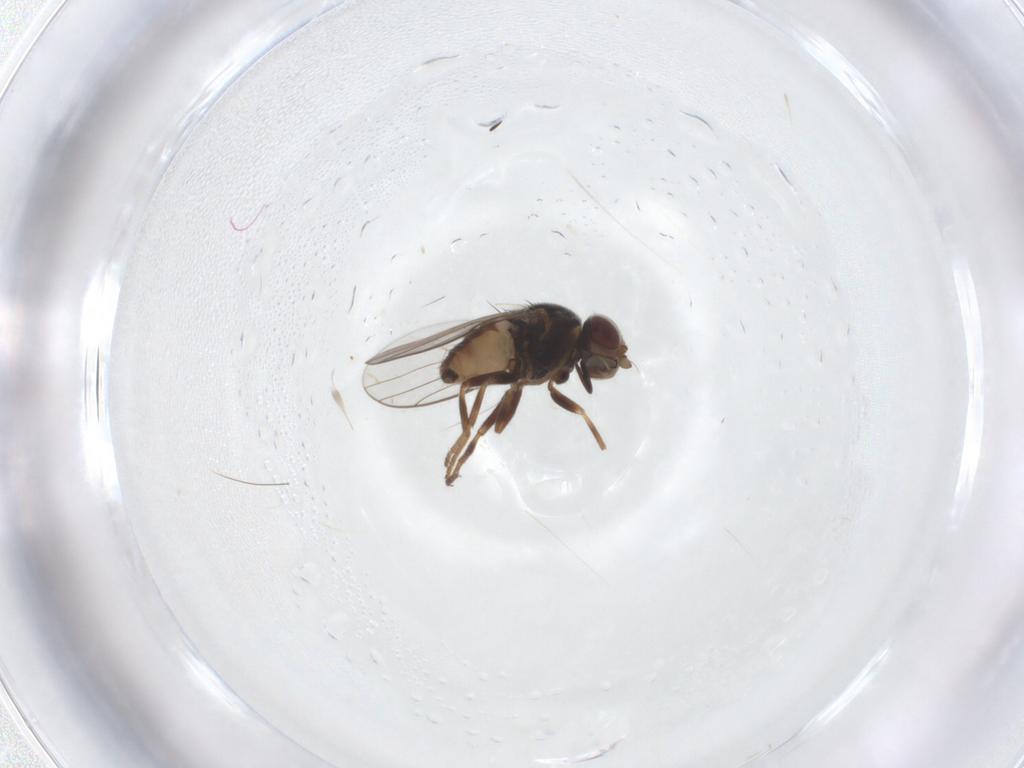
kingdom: Animalia
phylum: Arthropoda
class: Insecta
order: Diptera
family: Chloropidae
